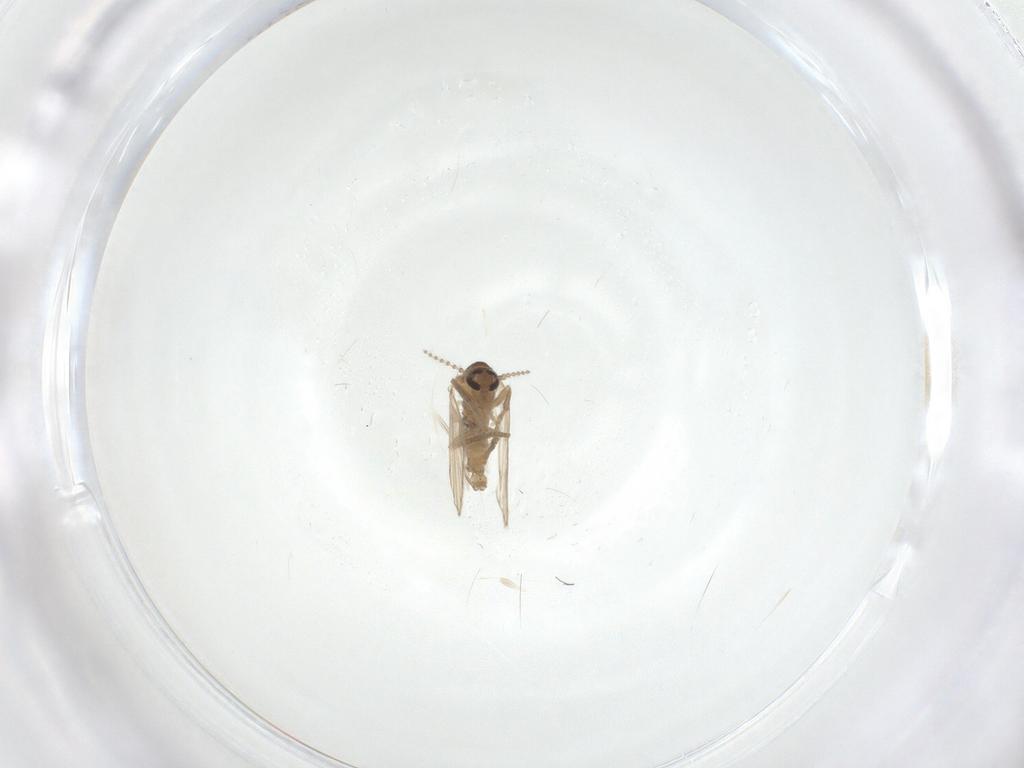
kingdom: Animalia
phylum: Arthropoda
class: Insecta
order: Diptera
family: Psychodidae
